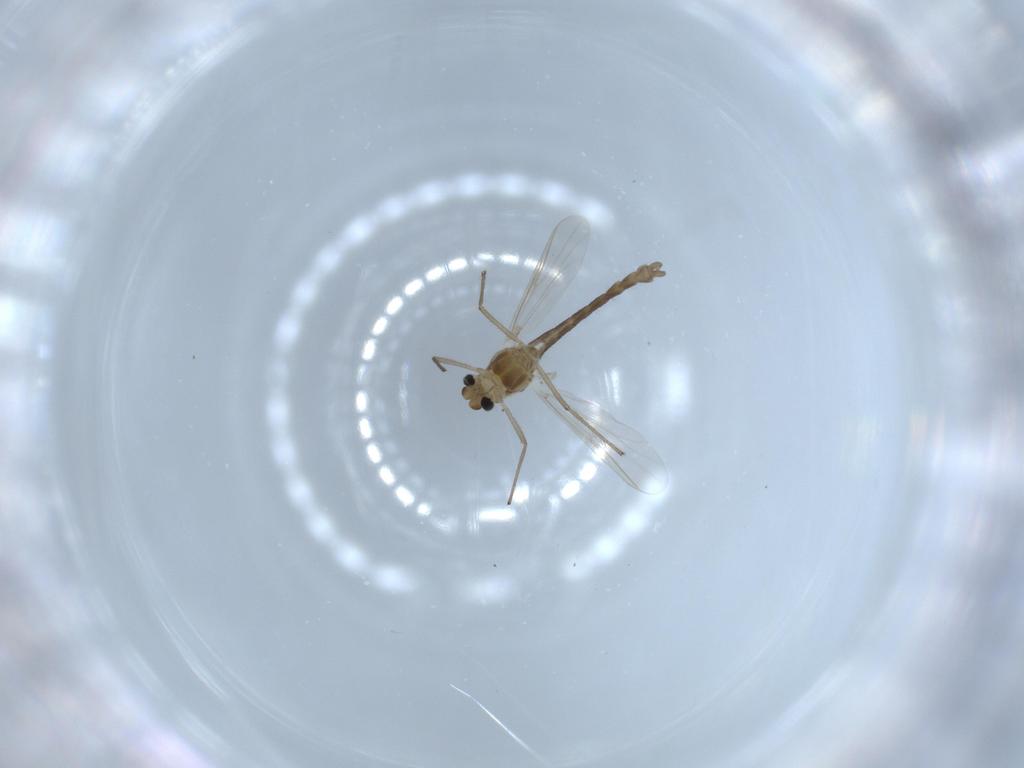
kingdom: Animalia
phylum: Arthropoda
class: Insecta
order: Diptera
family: Chironomidae
